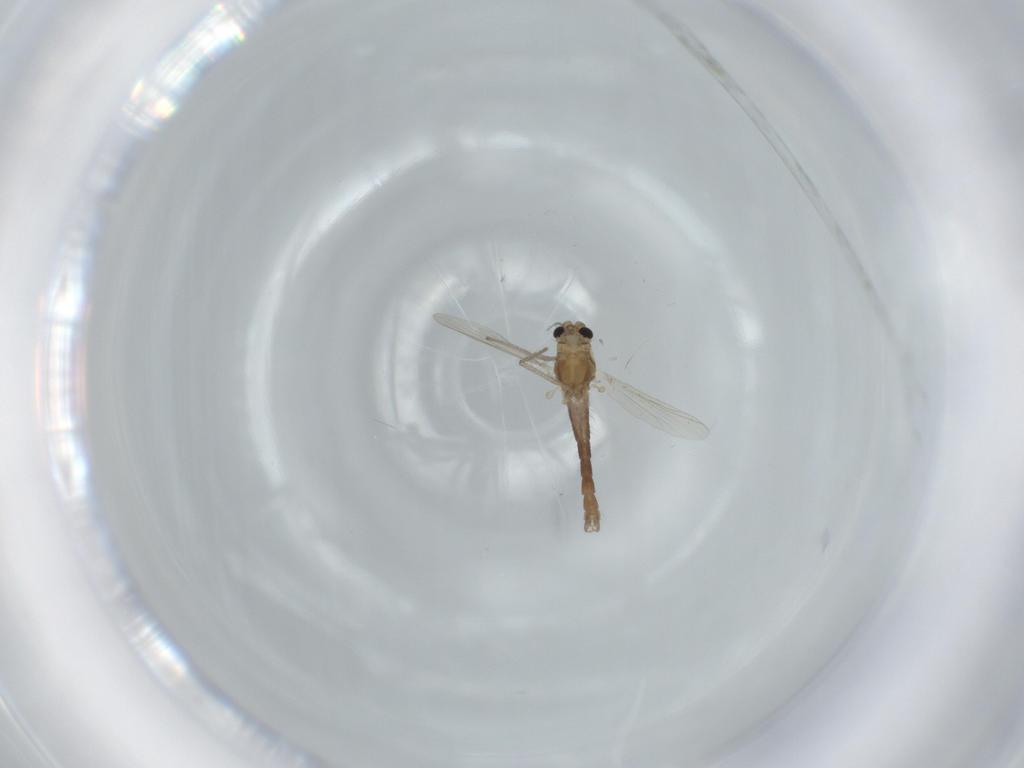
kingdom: Animalia
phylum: Arthropoda
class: Insecta
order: Diptera
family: Chironomidae
